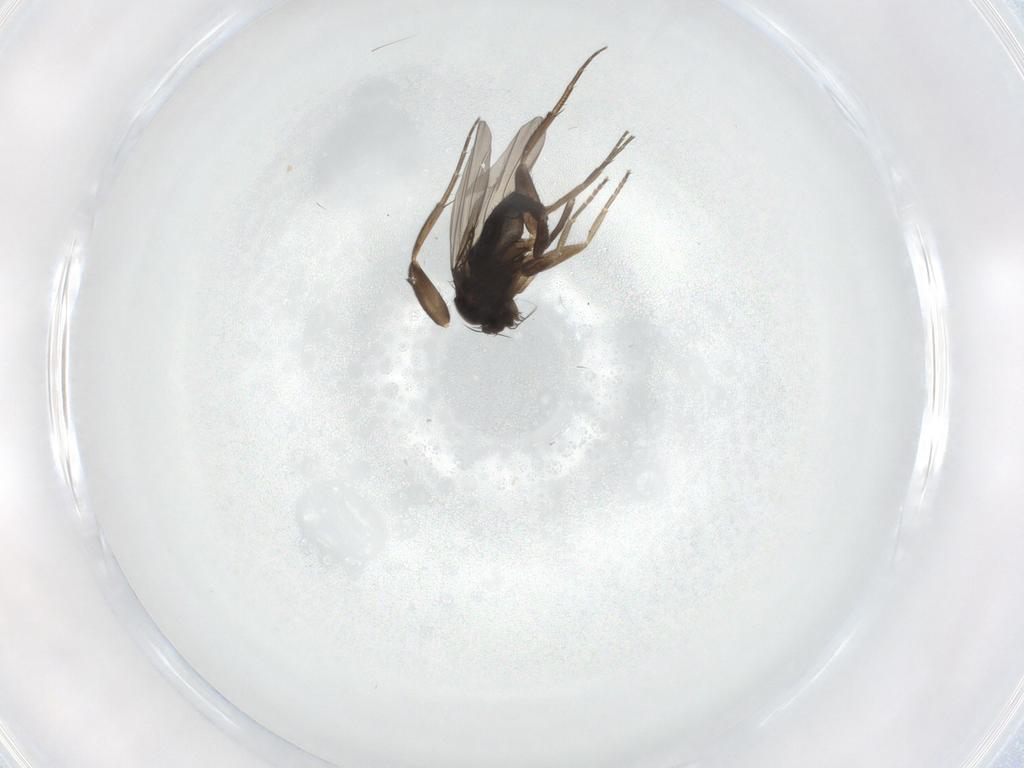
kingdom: Animalia
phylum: Arthropoda
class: Insecta
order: Diptera
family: Phoridae
